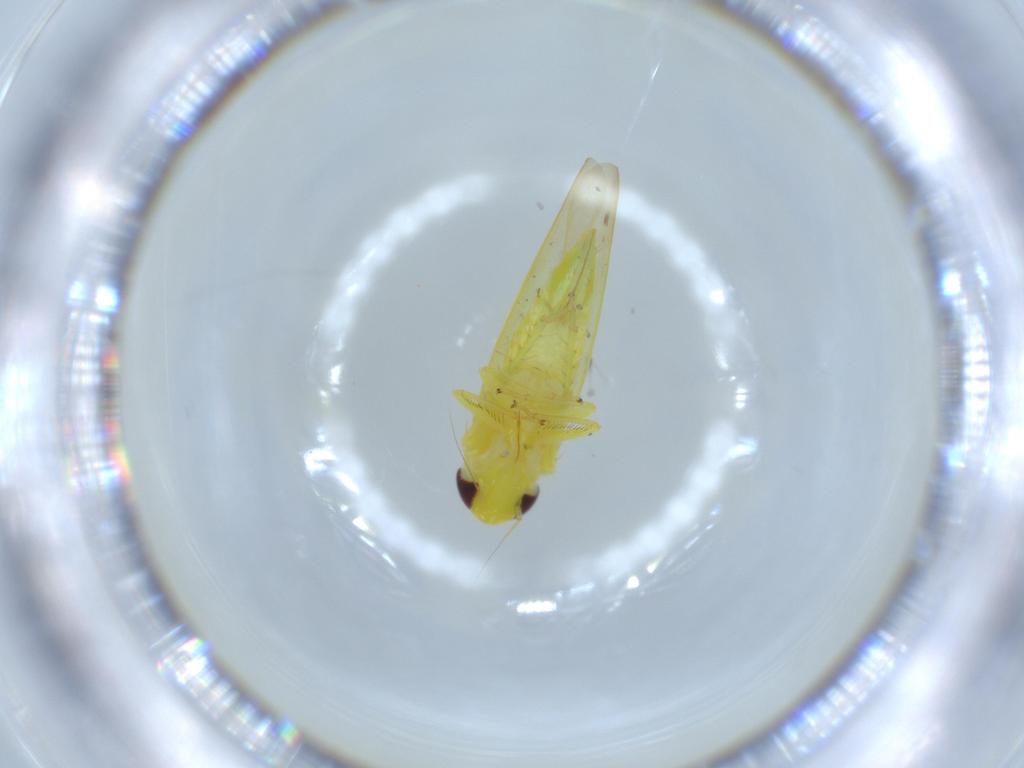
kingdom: Animalia
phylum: Arthropoda
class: Insecta
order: Hemiptera
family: Cicadellidae
